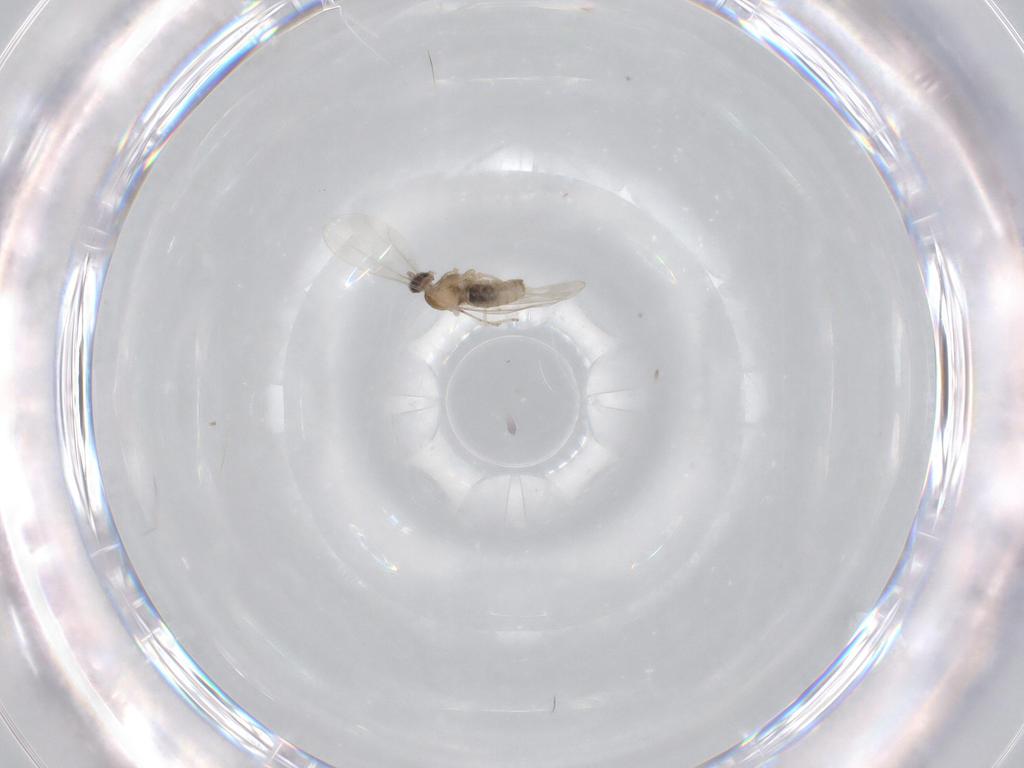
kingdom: Animalia
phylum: Arthropoda
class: Insecta
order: Diptera
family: Cecidomyiidae
